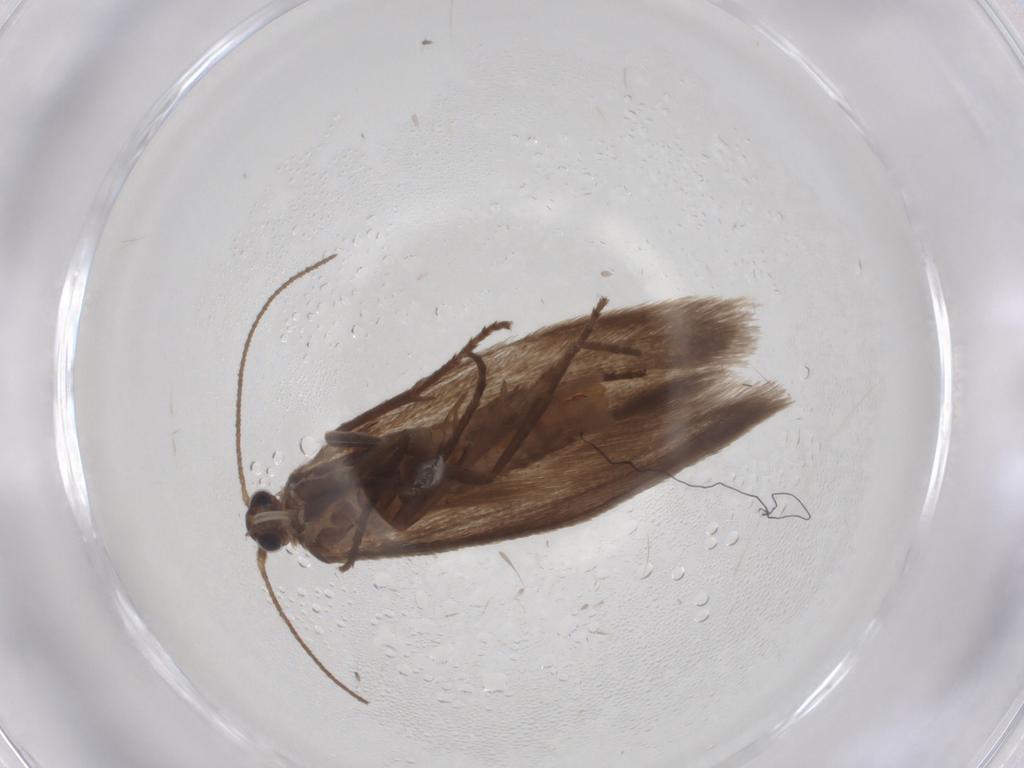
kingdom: Animalia
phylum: Arthropoda
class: Insecta
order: Lepidoptera
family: Limacodidae
